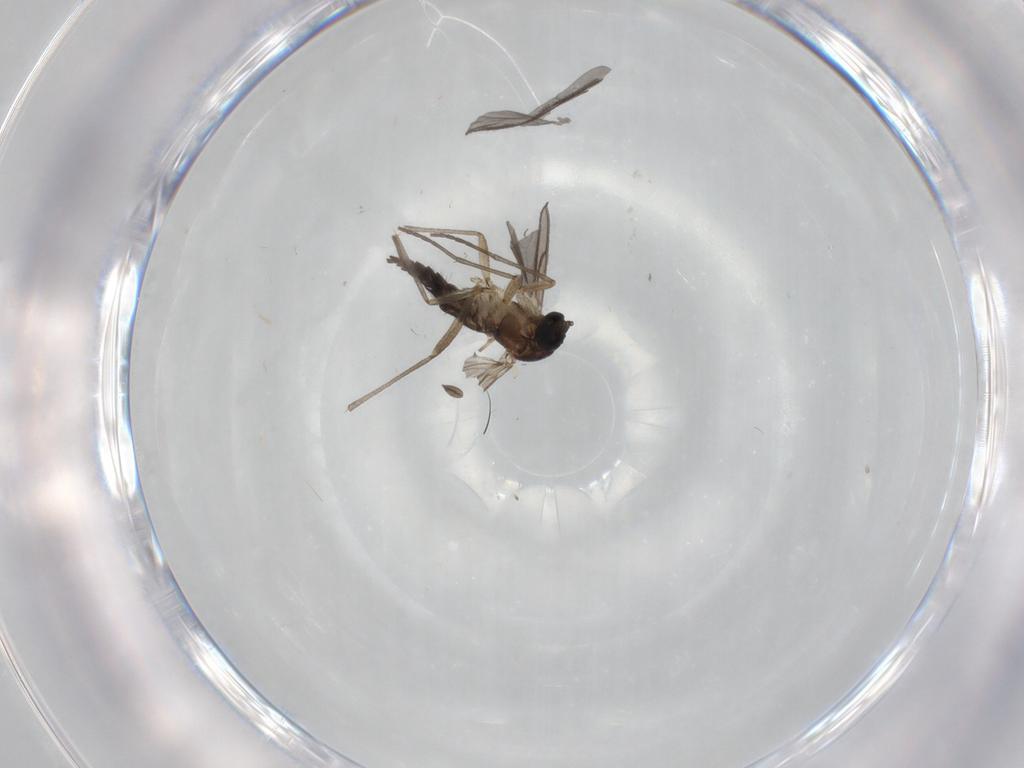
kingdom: Animalia
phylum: Arthropoda
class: Insecta
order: Diptera
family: Sciaridae
